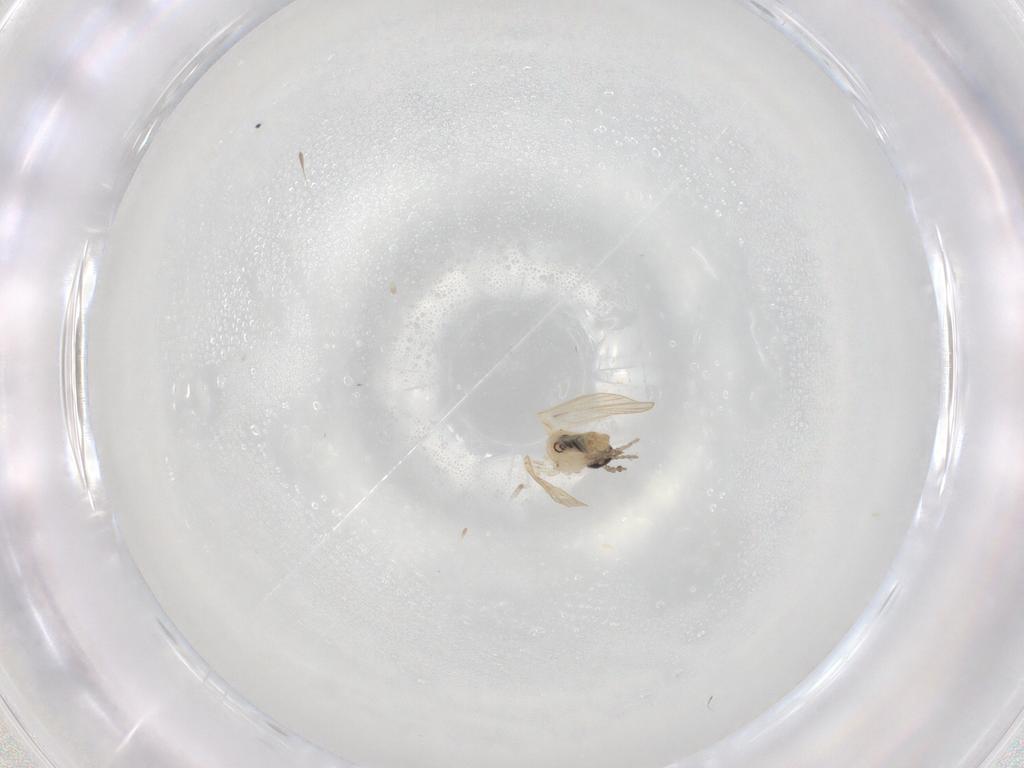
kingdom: Animalia
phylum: Arthropoda
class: Insecta
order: Diptera
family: Psychodidae
